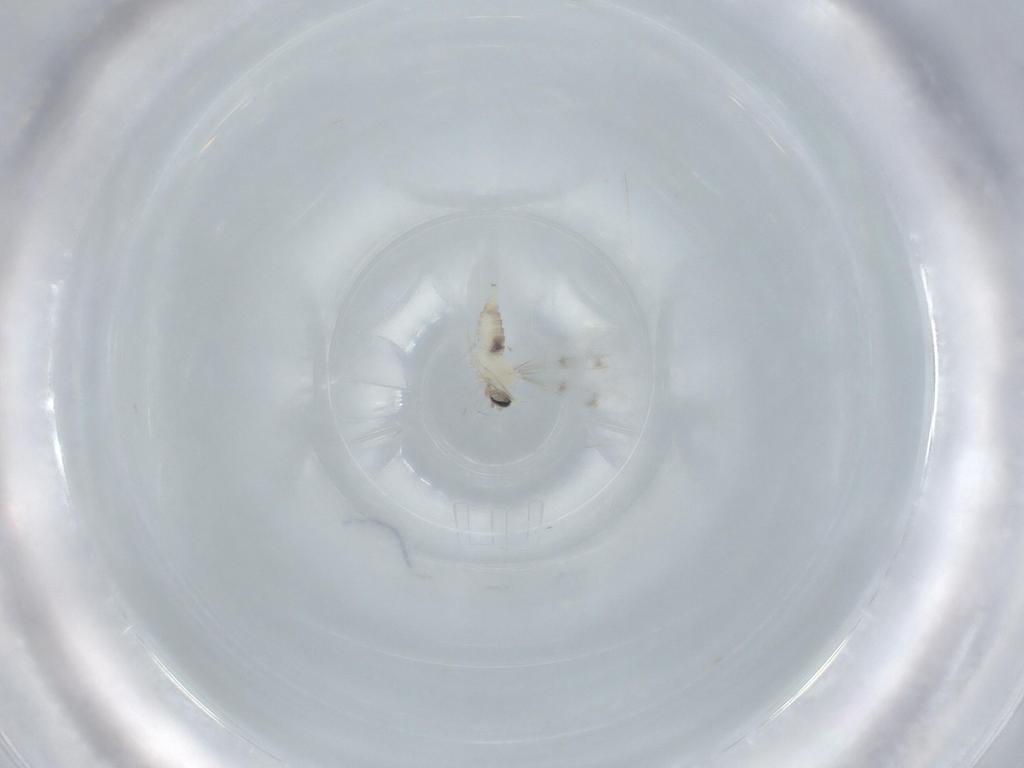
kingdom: Animalia
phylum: Arthropoda
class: Insecta
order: Diptera
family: Cecidomyiidae
